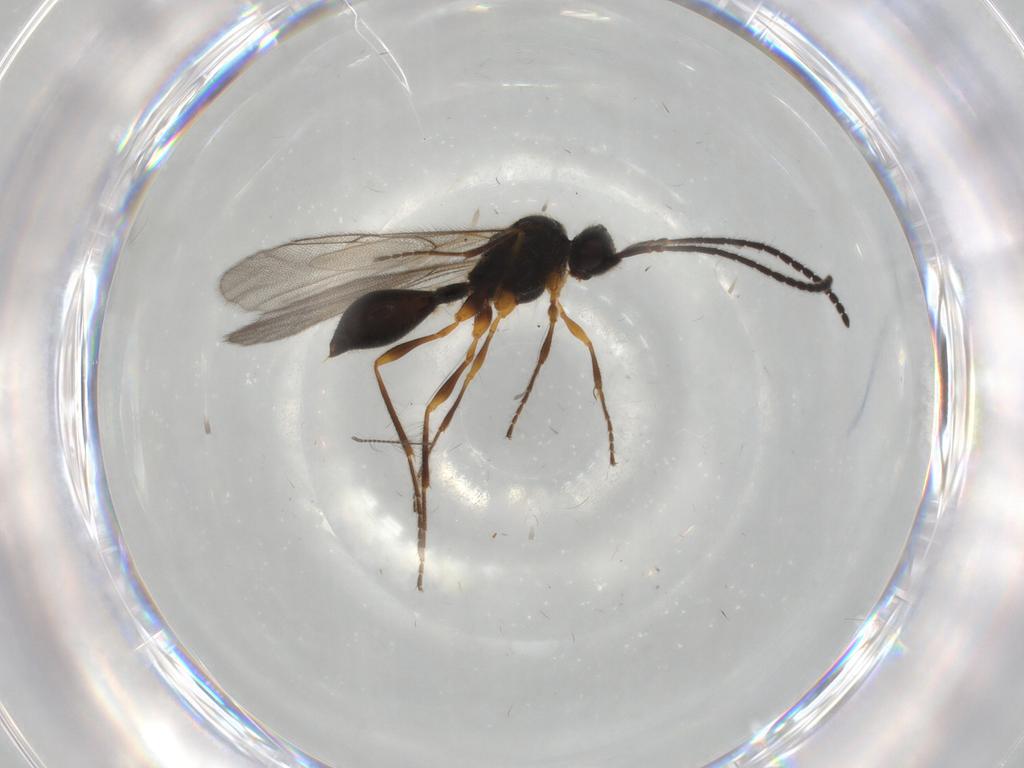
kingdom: Animalia
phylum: Arthropoda
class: Insecta
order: Hymenoptera
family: Diapriidae
